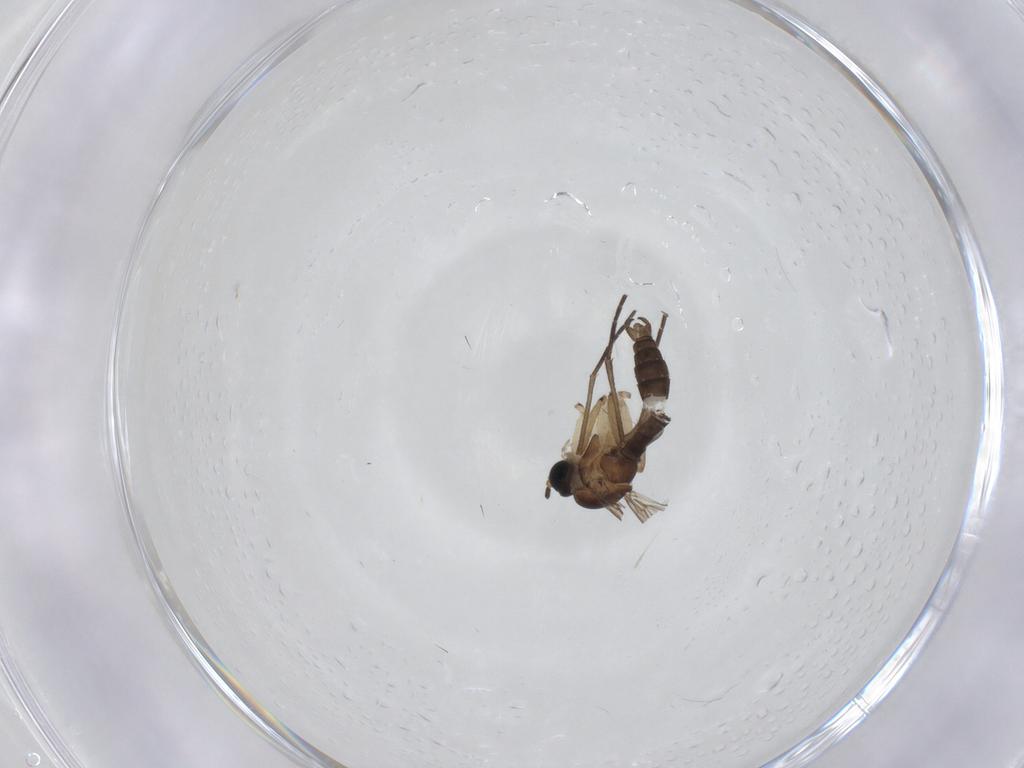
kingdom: Animalia
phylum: Arthropoda
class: Insecta
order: Diptera
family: Sciaridae
